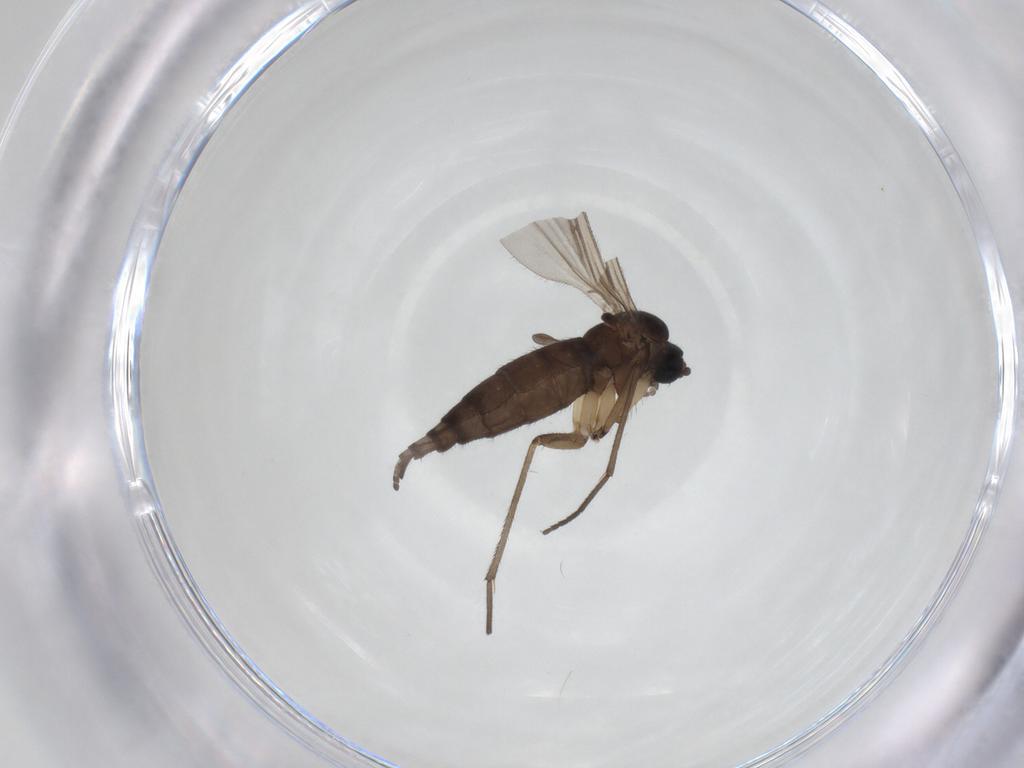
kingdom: Animalia
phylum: Arthropoda
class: Insecta
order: Diptera
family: Sciaridae
